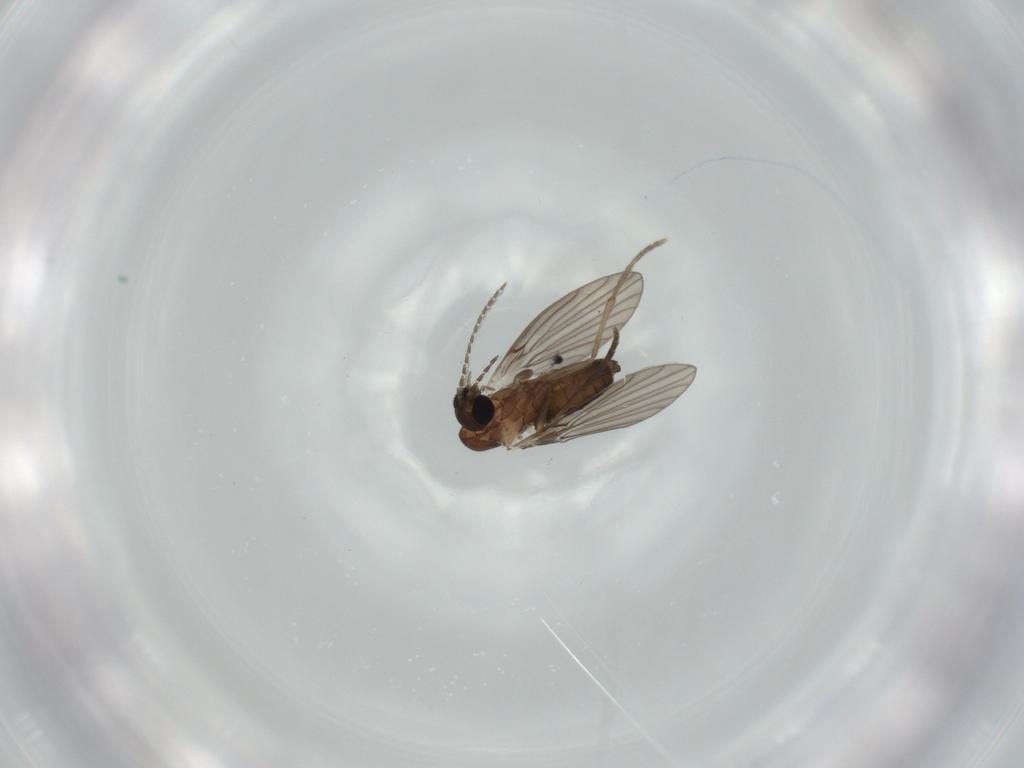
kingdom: Animalia
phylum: Arthropoda
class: Insecta
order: Diptera
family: Psychodidae
